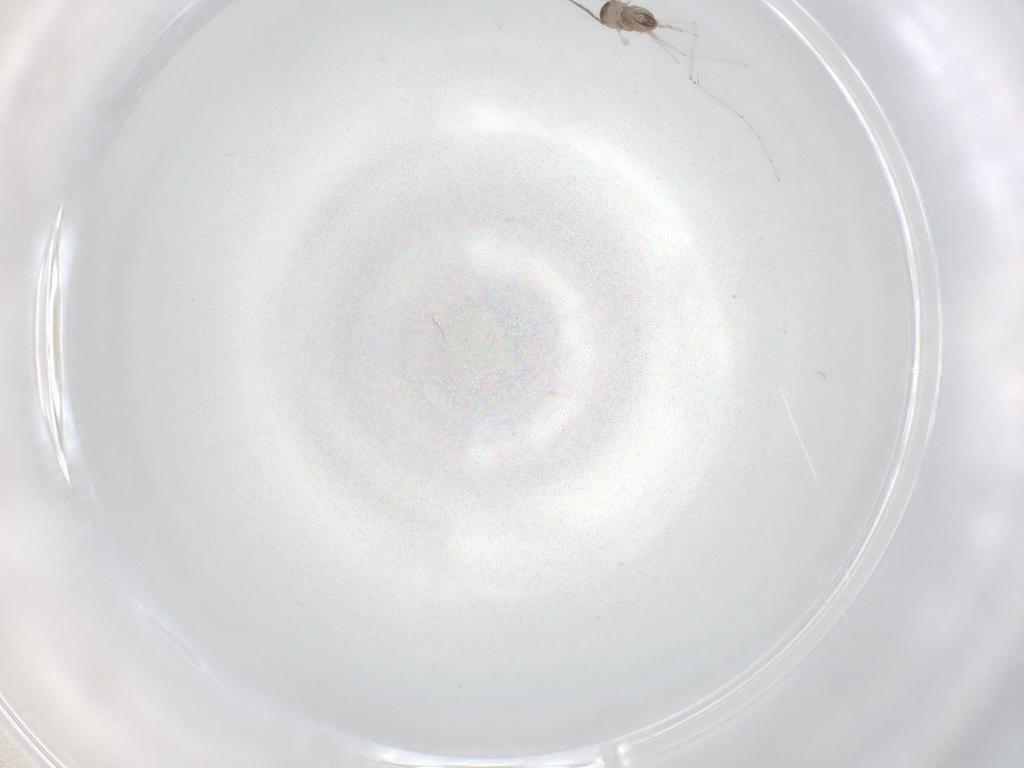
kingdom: Animalia
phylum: Arthropoda
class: Insecta
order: Diptera
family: Cecidomyiidae
